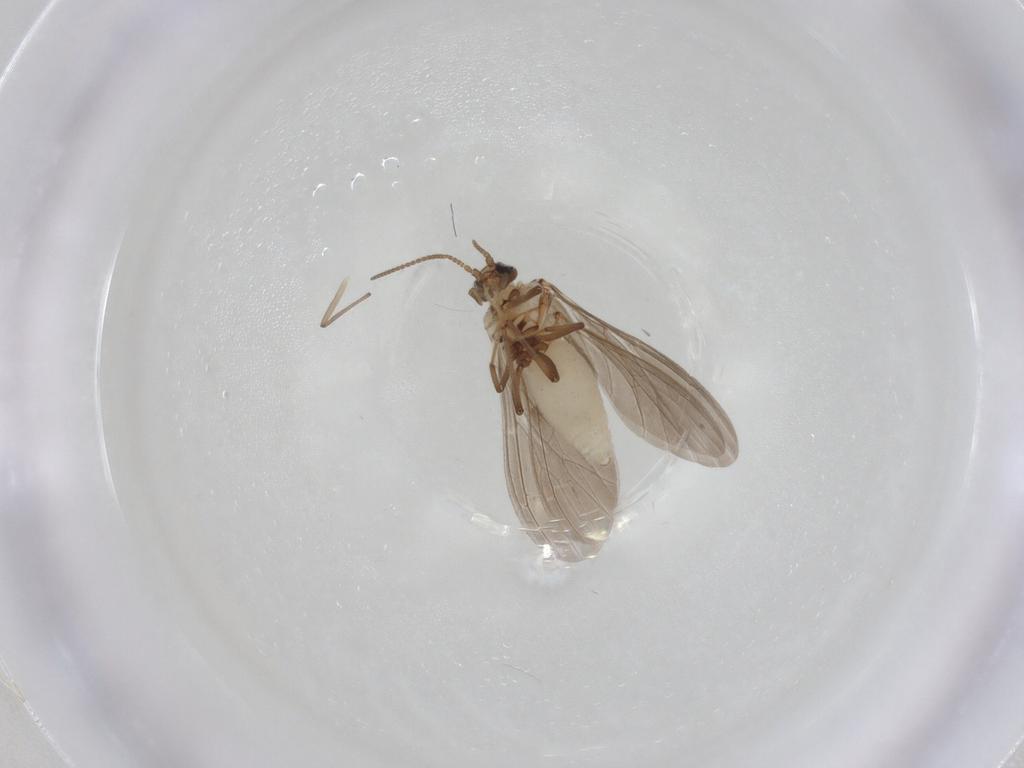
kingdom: Animalia
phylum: Arthropoda
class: Insecta
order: Neuroptera
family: Coniopterygidae
